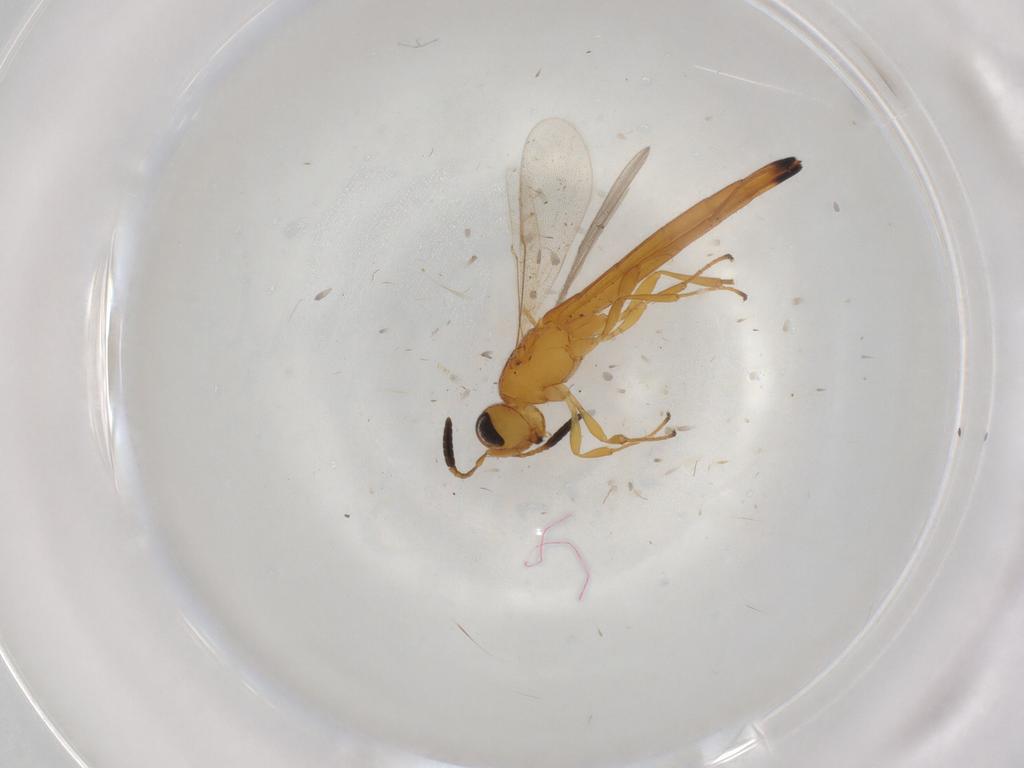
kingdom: Animalia
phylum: Arthropoda
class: Insecta
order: Hymenoptera
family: Scelionidae
